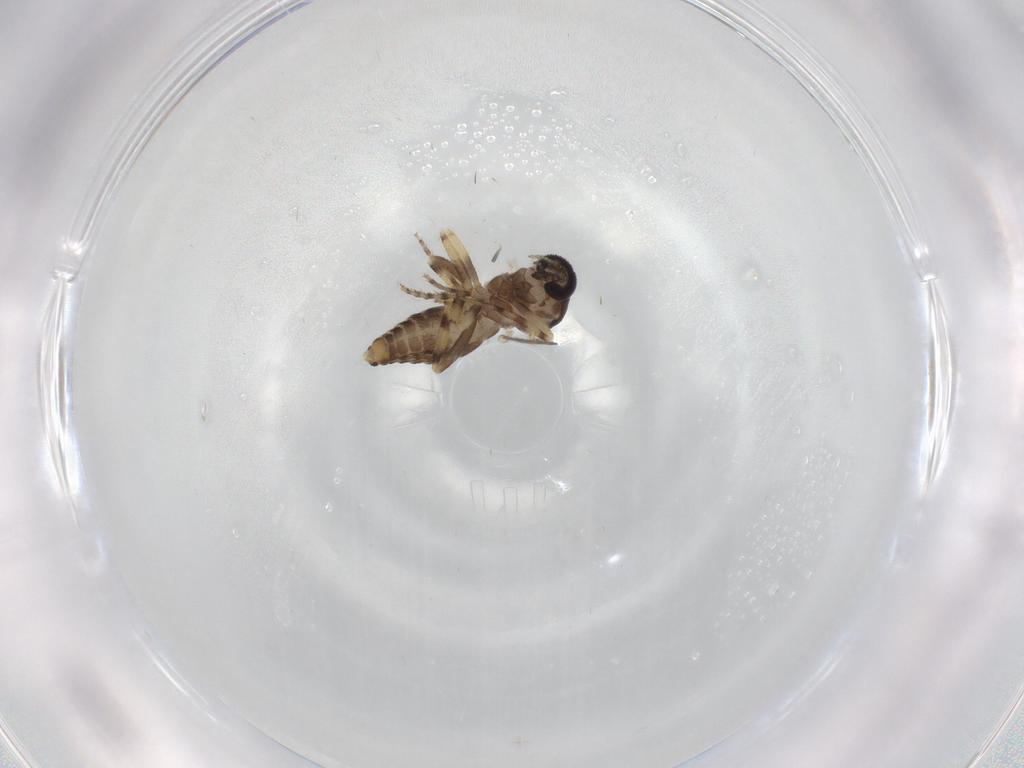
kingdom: Animalia
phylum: Arthropoda
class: Insecta
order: Diptera
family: Ceratopogonidae
